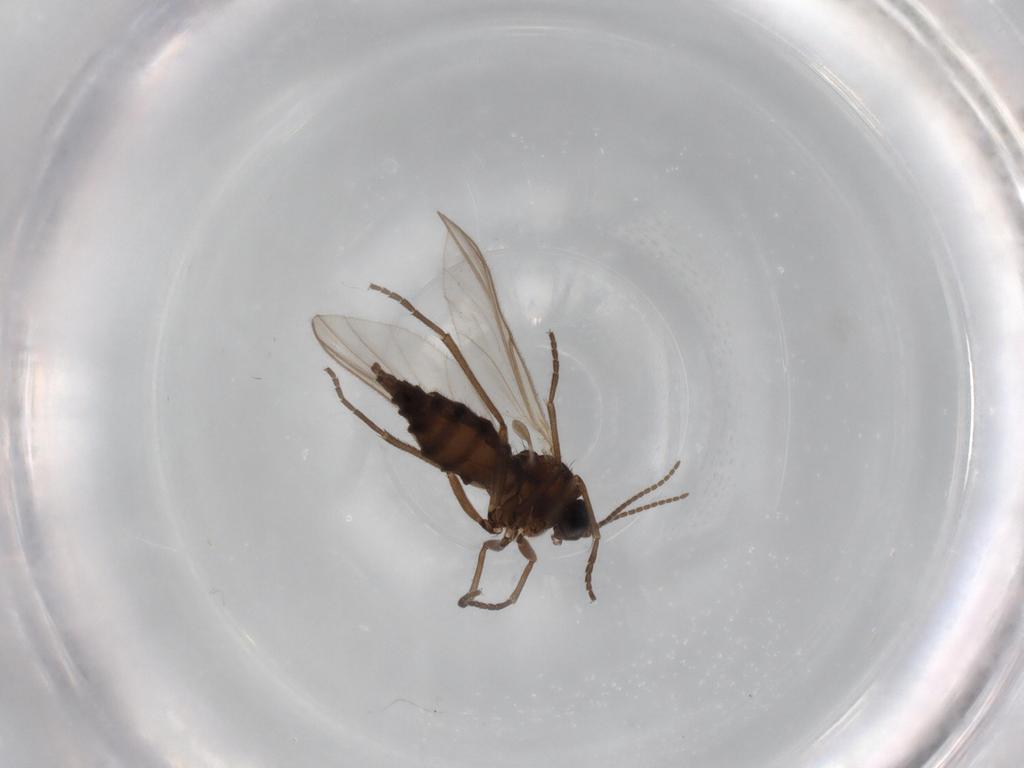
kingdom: Animalia
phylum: Arthropoda
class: Insecta
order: Diptera
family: Sciaridae
